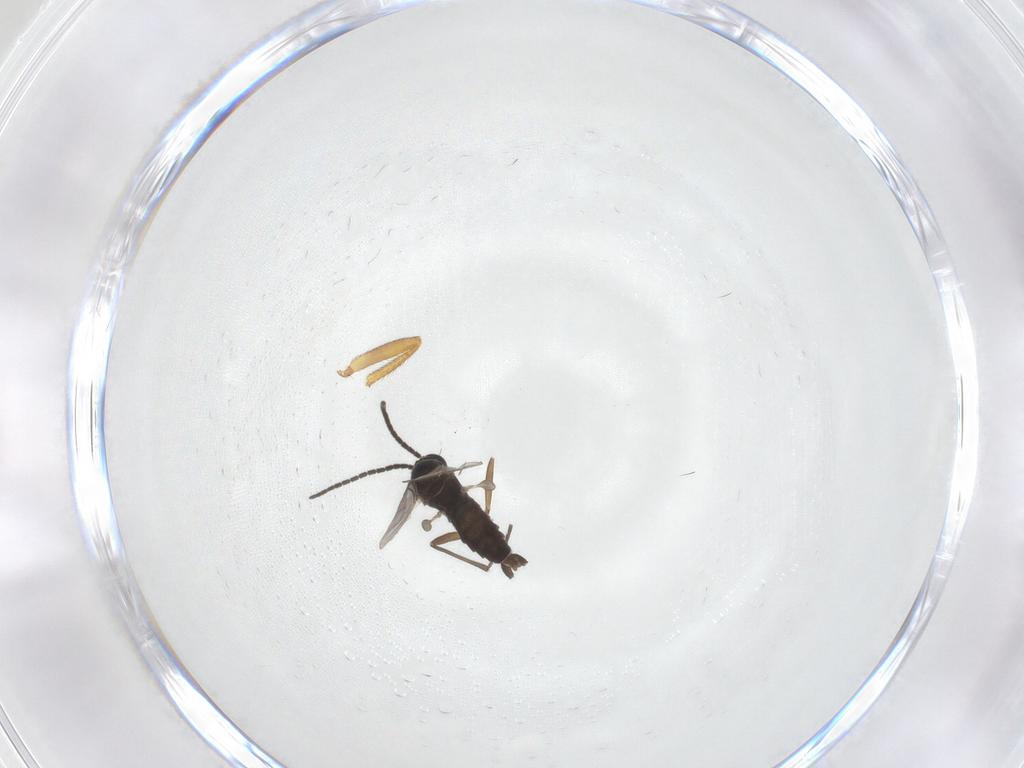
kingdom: Animalia
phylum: Arthropoda
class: Insecta
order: Diptera
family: Sciaridae
